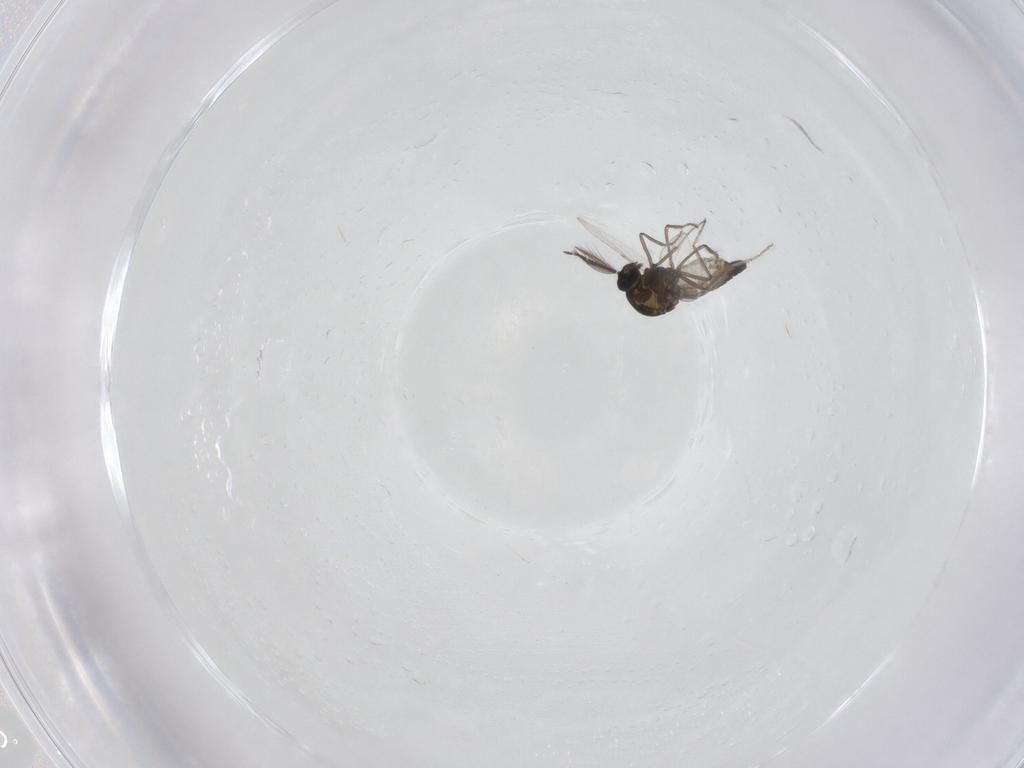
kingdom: Animalia
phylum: Arthropoda
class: Insecta
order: Diptera
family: Ceratopogonidae
